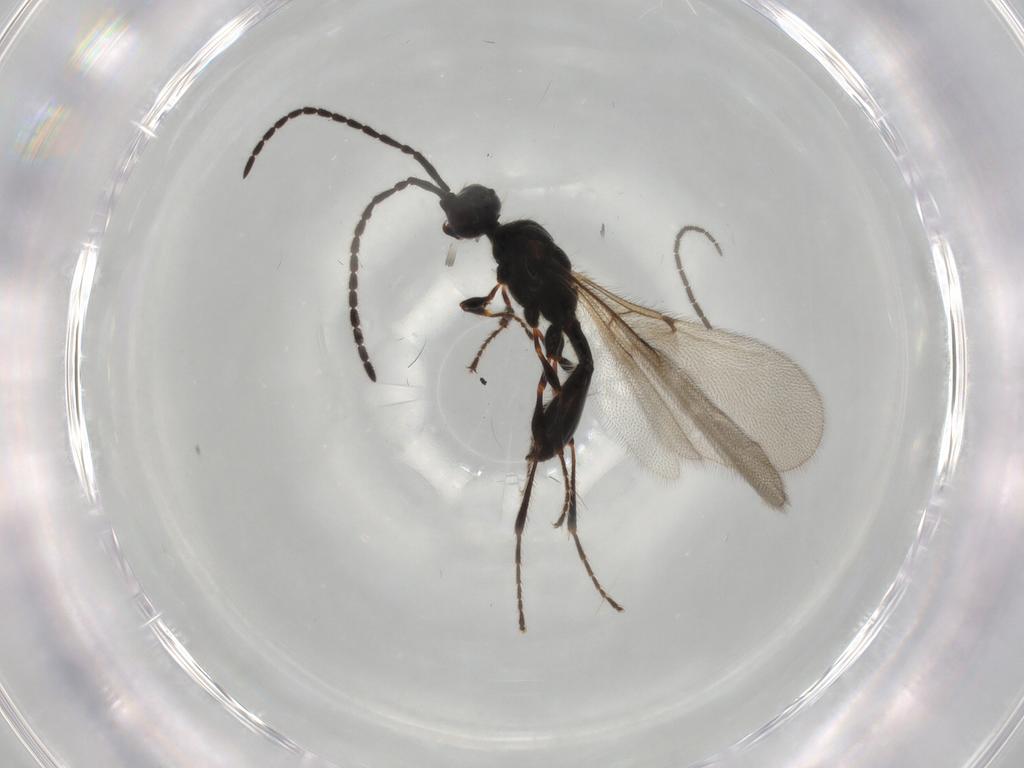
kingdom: Animalia
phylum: Arthropoda
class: Insecta
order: Hymenoptera
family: Diapriidae
